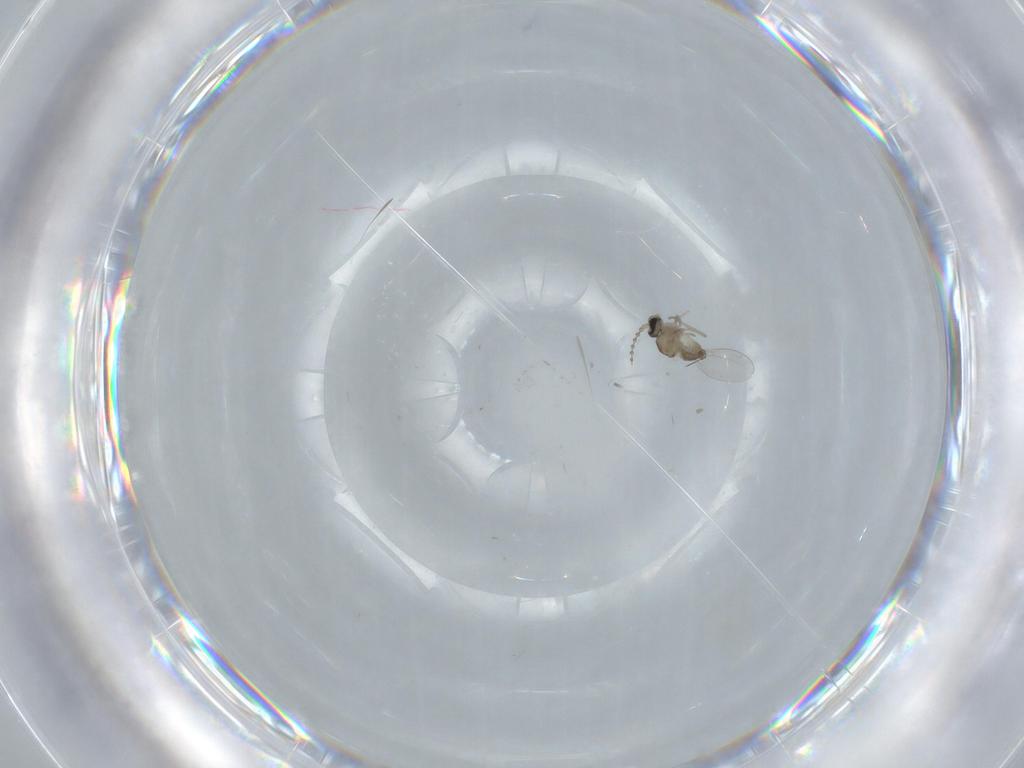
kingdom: Animalia
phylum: Arthropoda
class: Insecta
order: Diptera
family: Cecidomyiidae
